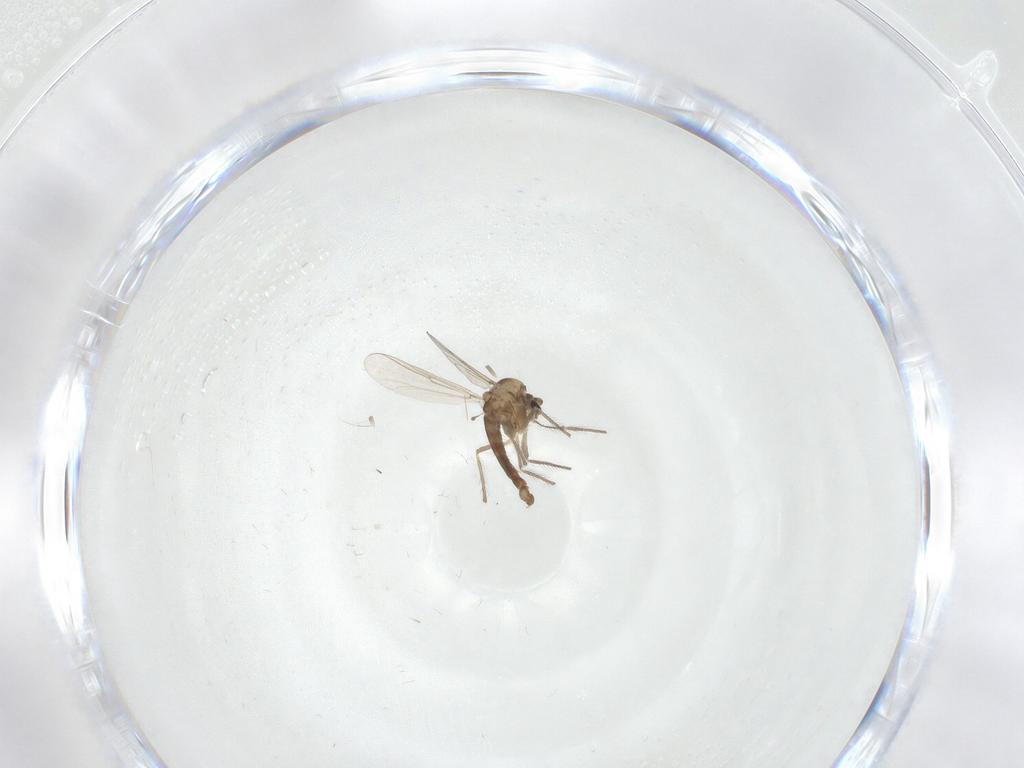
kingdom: Animalia
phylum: Arthropoda
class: Insecta
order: Diptera
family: Chironomidae
